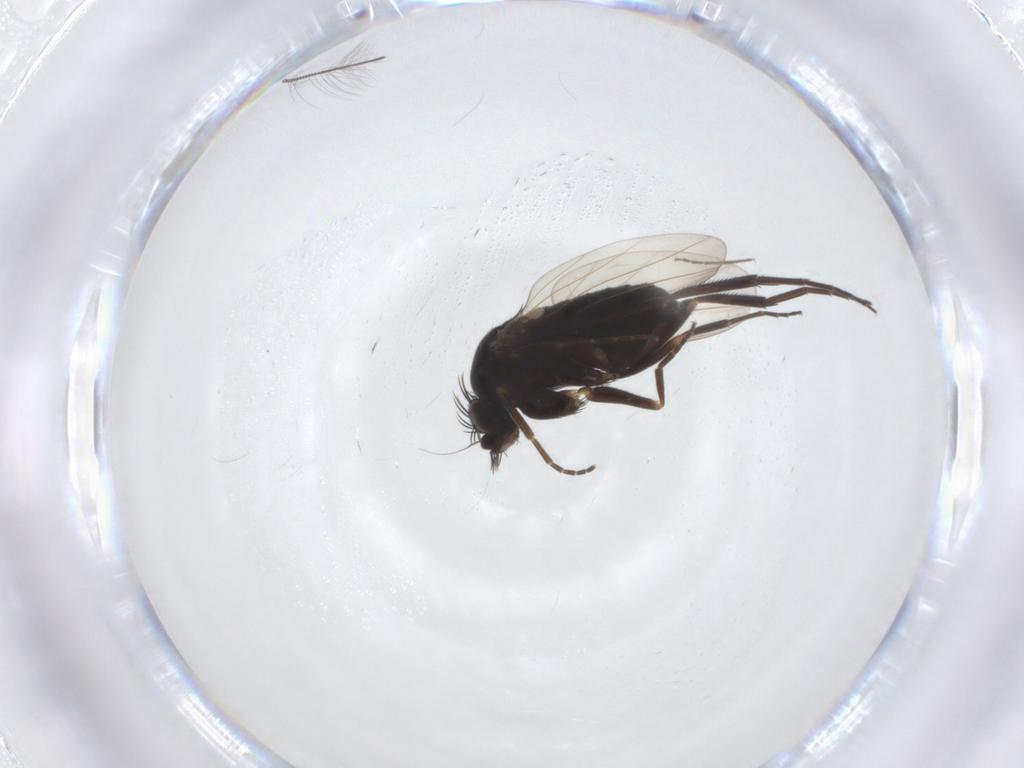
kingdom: Animalia
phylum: Arthropoda
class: Insecta
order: Diptera
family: Phoridae
